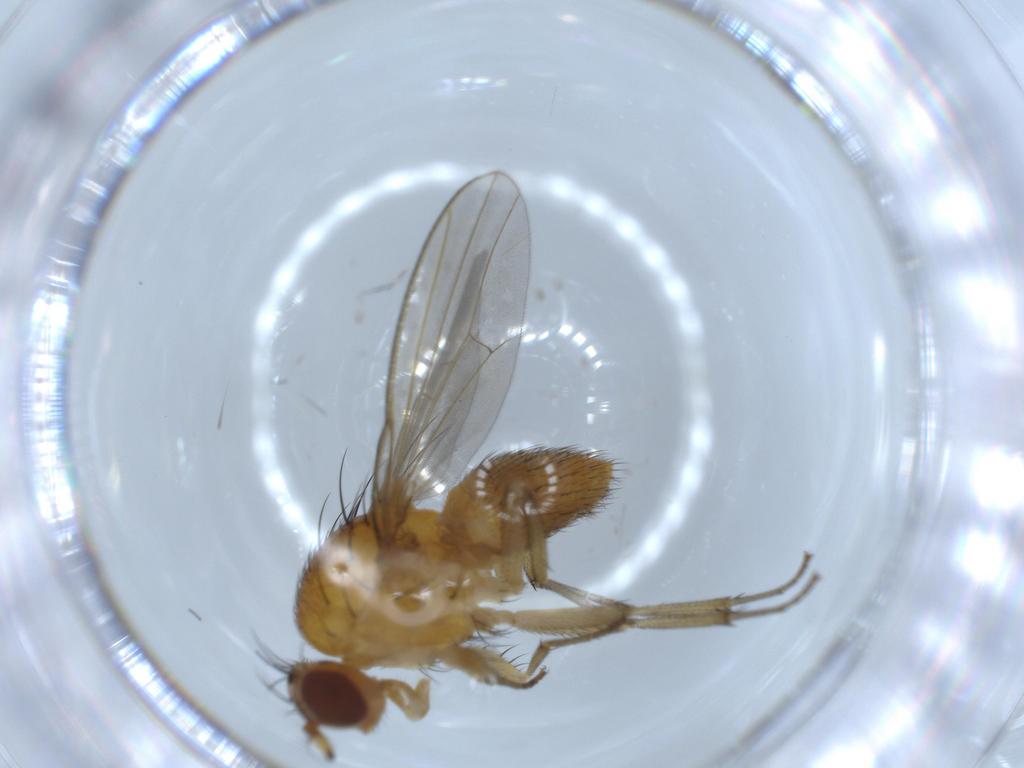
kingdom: Animalia
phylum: Arthropoda
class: Insecta
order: Diptera
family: Lauxaniidae
